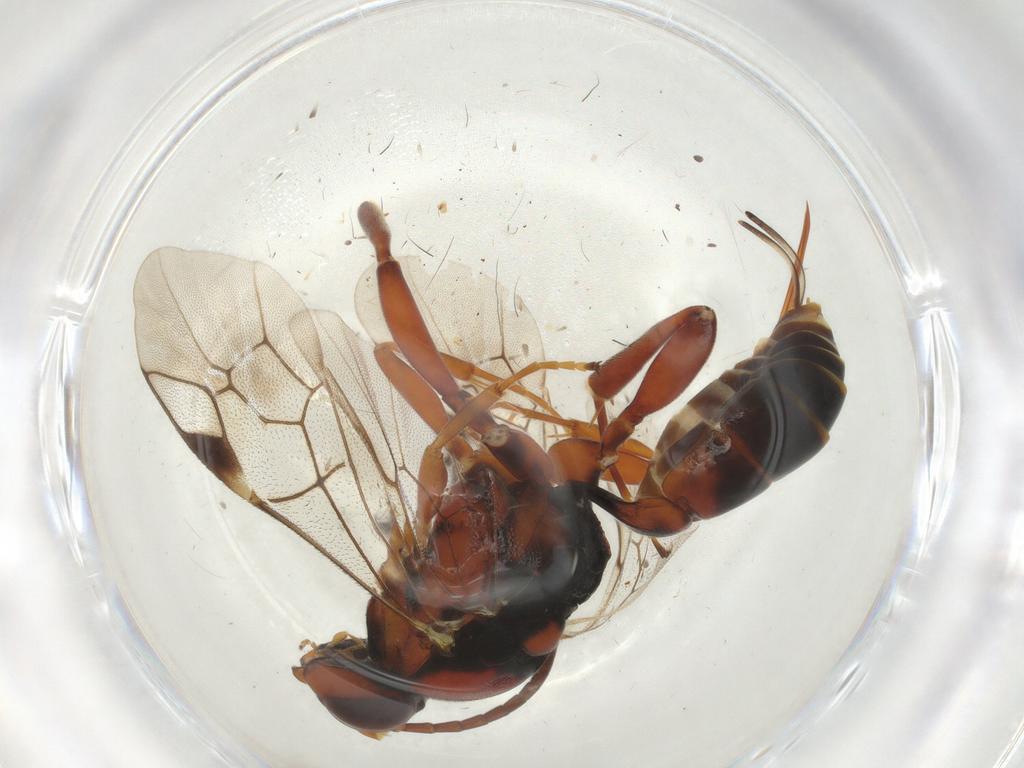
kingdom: Animalia
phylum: Arthropoda
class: Insecta
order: Hymenoptera
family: Ichneumonidae
